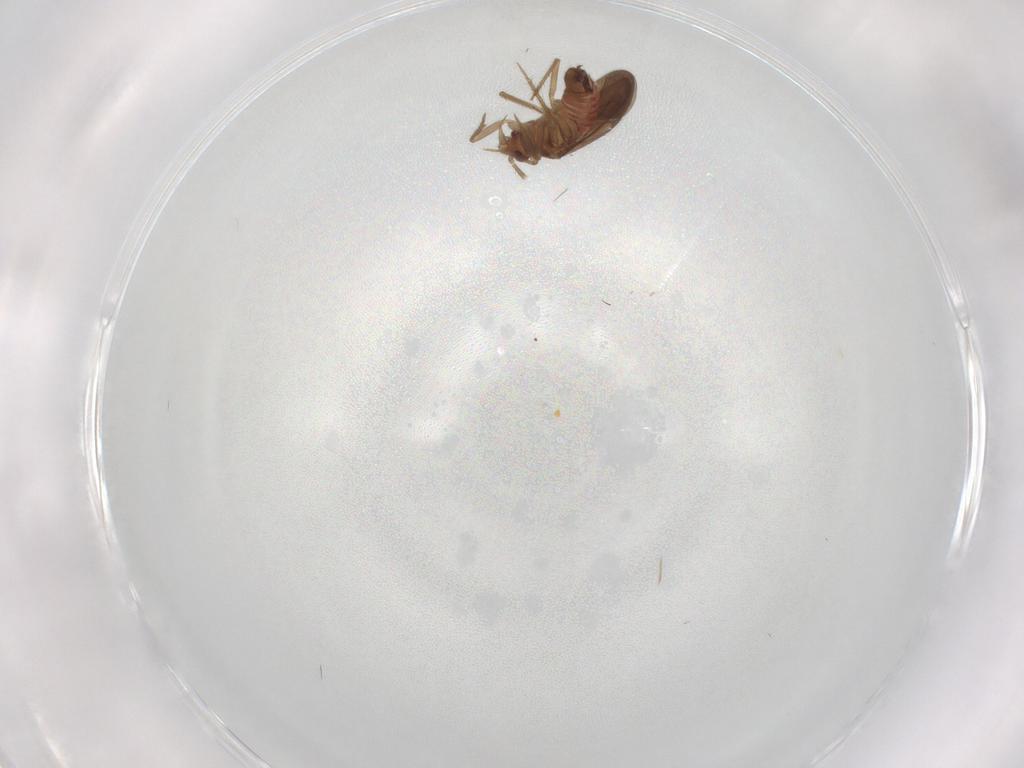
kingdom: Animalia
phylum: Arthropoda
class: Insecta
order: Hemiptera
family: Ceratocombidae
